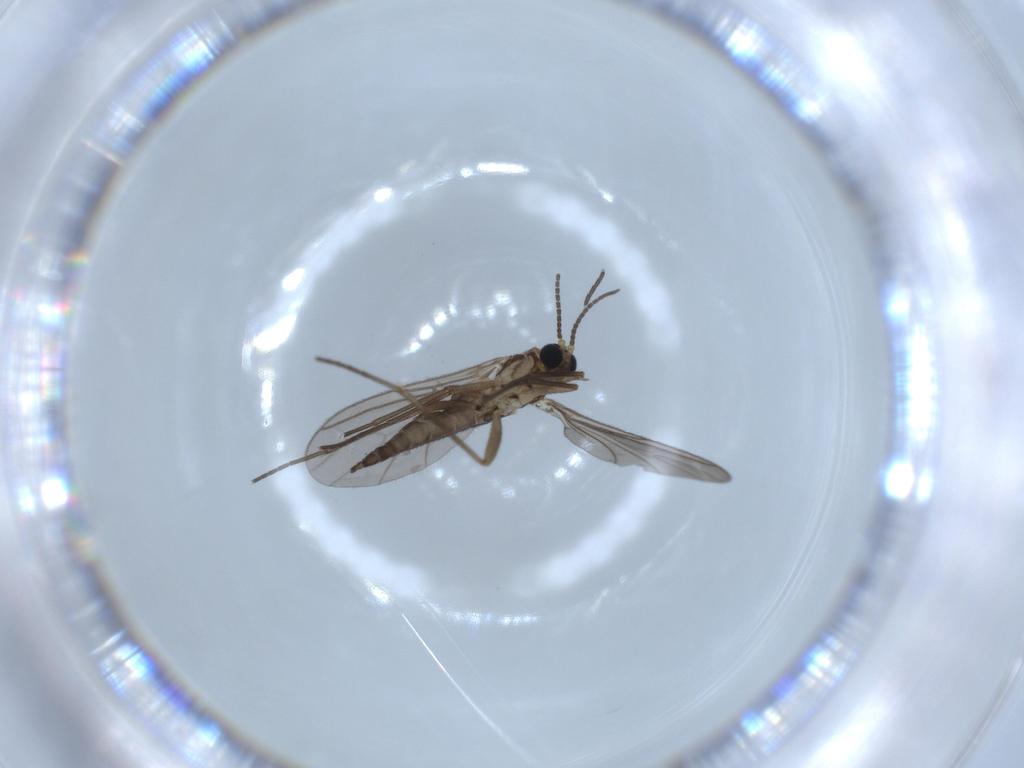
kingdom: Animalia
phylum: Arthropoda
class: Insecta
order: Diptera
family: Sciaridae
